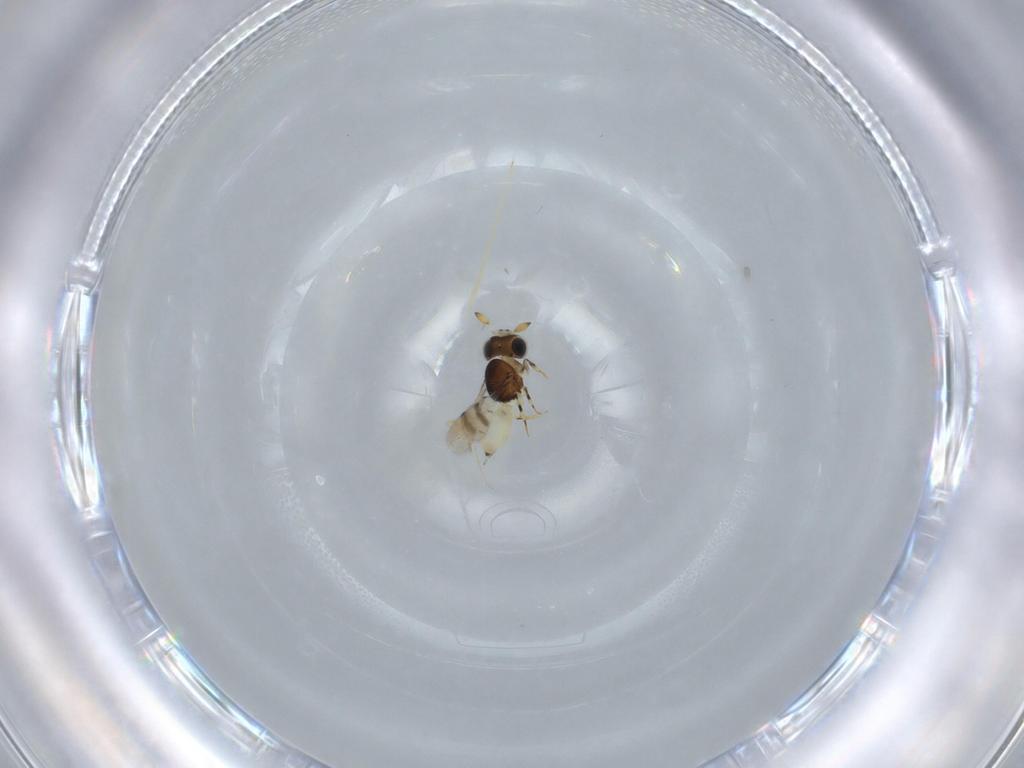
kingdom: Animalia
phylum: Arthropoda
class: Insecta
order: Hymenoptera
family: Scelionidae
